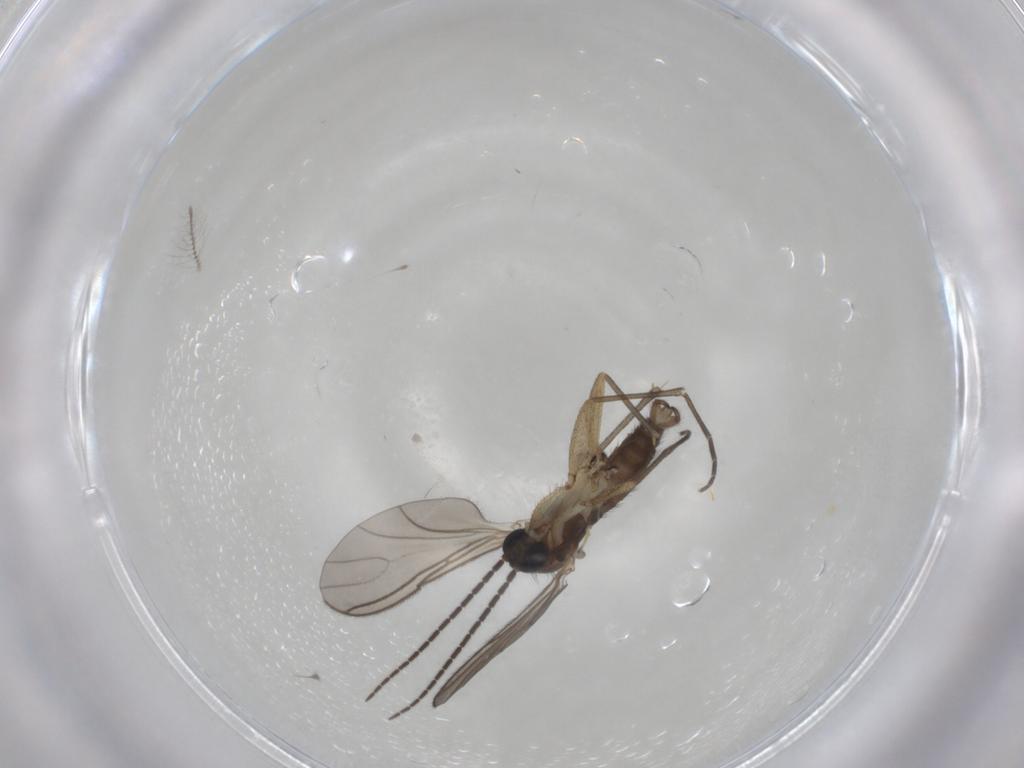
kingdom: Animalia
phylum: Arthropoda
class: Insecta
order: Diptera
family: Sciaridae
